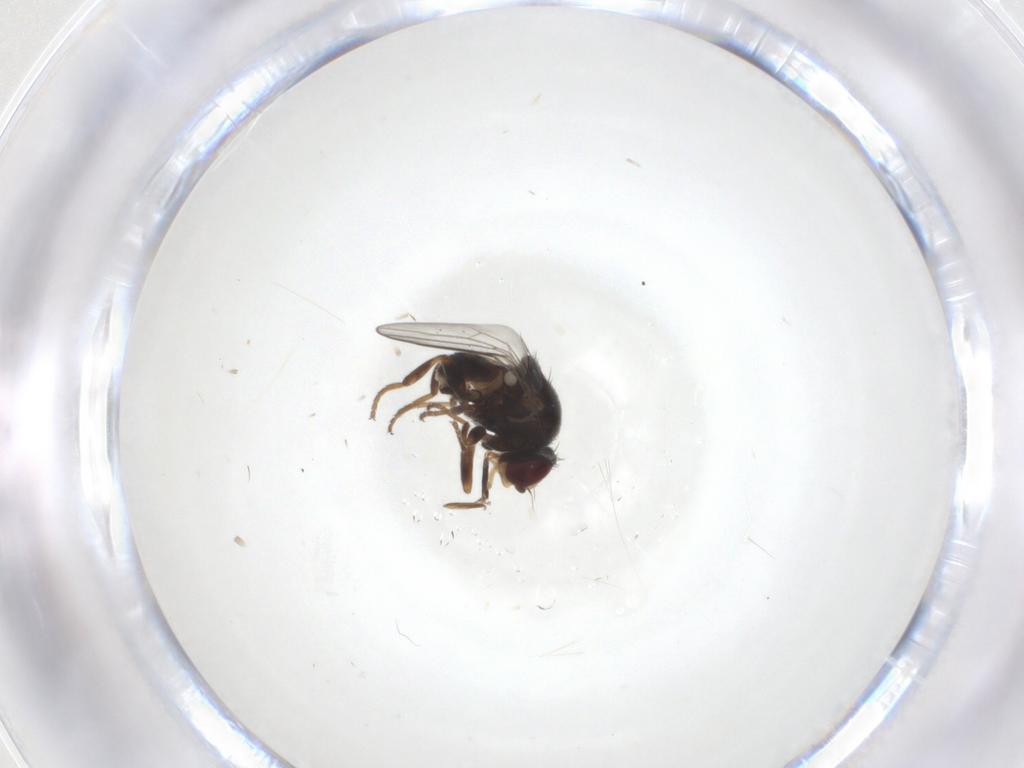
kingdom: Animalia
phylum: Arthropoda
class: Insecta
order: Diptera
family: Chloropidae
